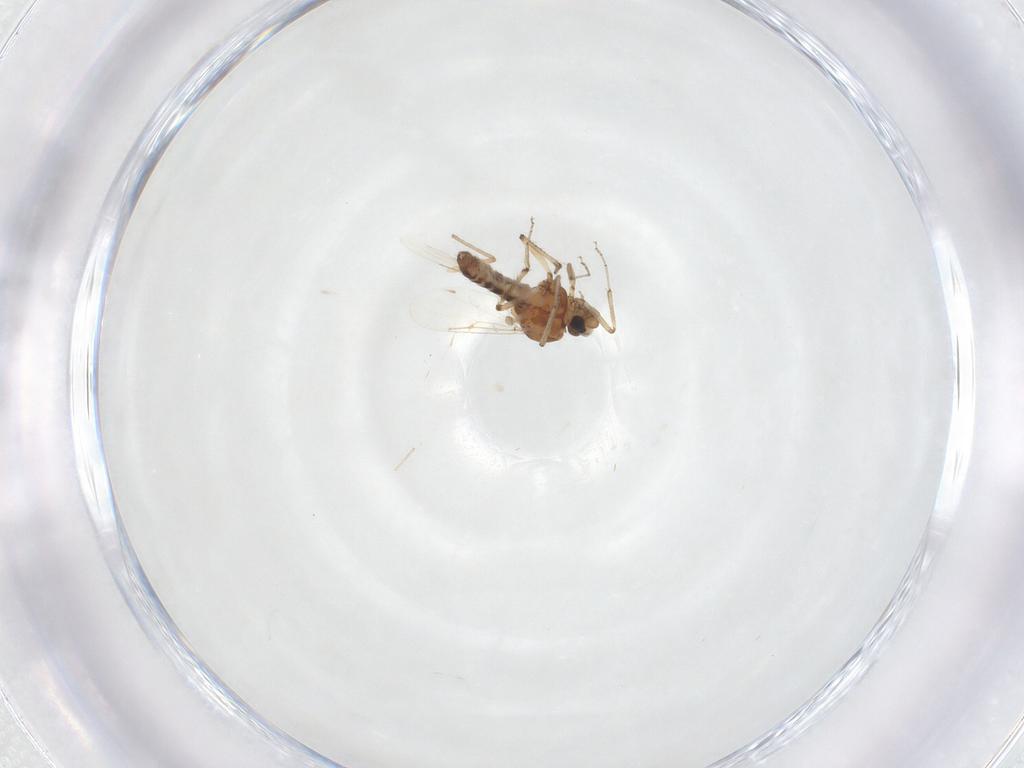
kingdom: Animalia
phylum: Arthropoda
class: Insecta
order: Diptera
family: Ceratopogonidae
